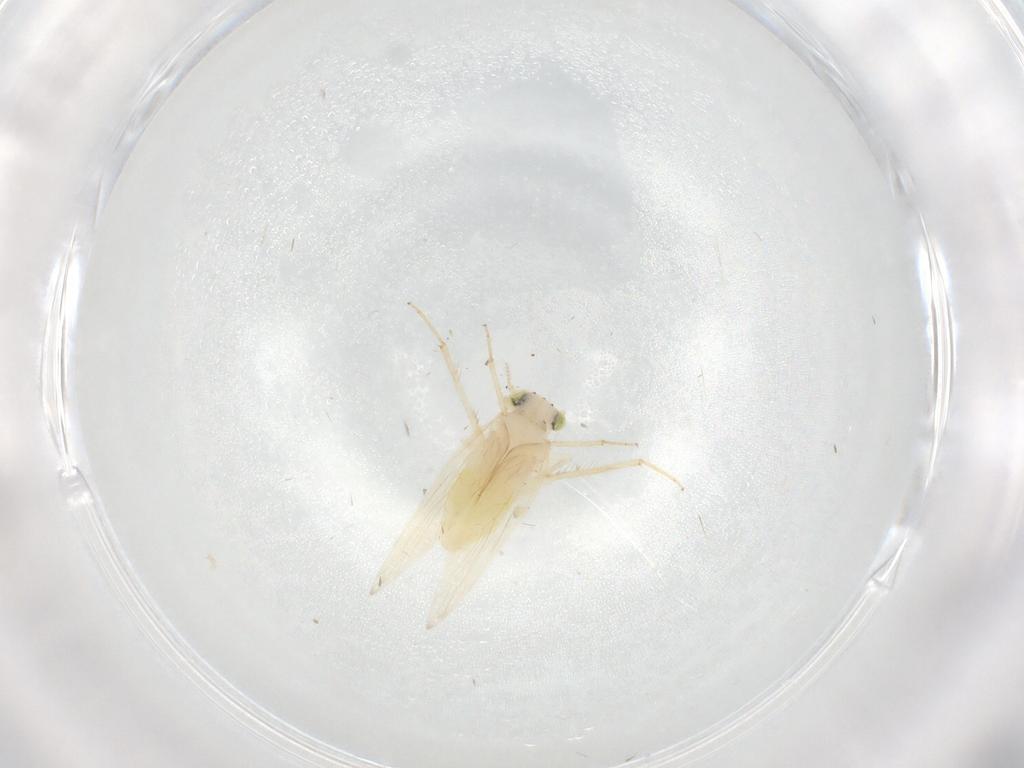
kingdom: Animalia
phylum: Arthropoda
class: Insecta
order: Psocodea
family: Lepidopsocidae
